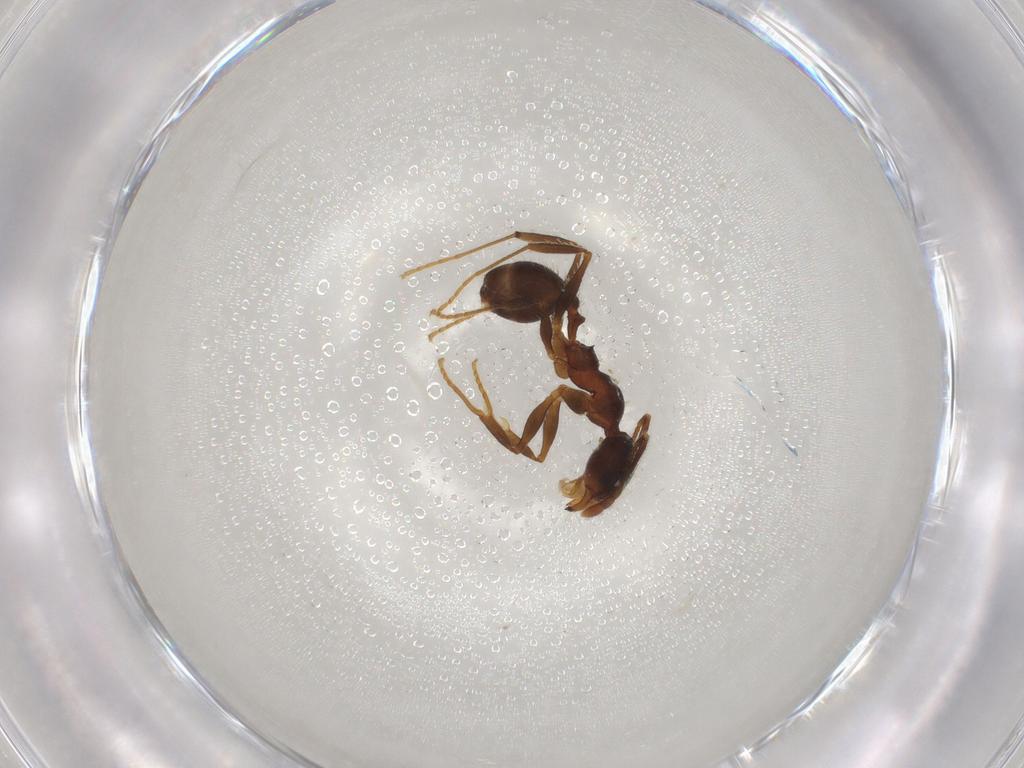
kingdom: Animalia
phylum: Arthropoda
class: Insecta
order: Hymenoptera
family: Formicidae
